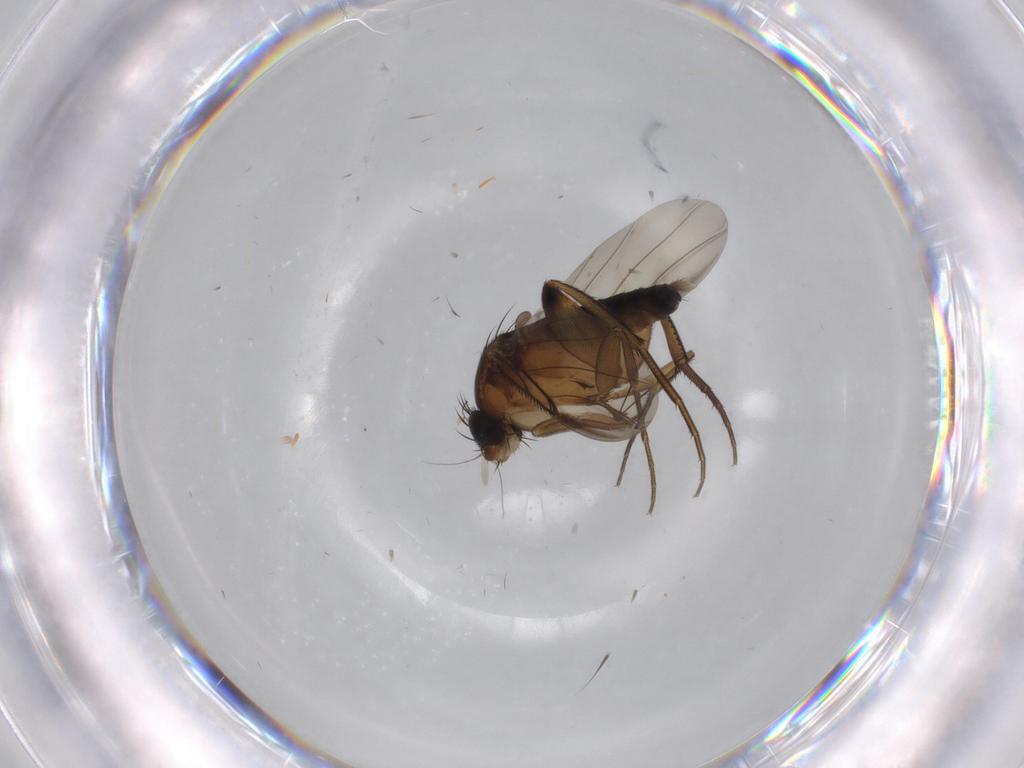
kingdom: Animalia
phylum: Arthropoda
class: Insecta
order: Diptera
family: Phoridae
